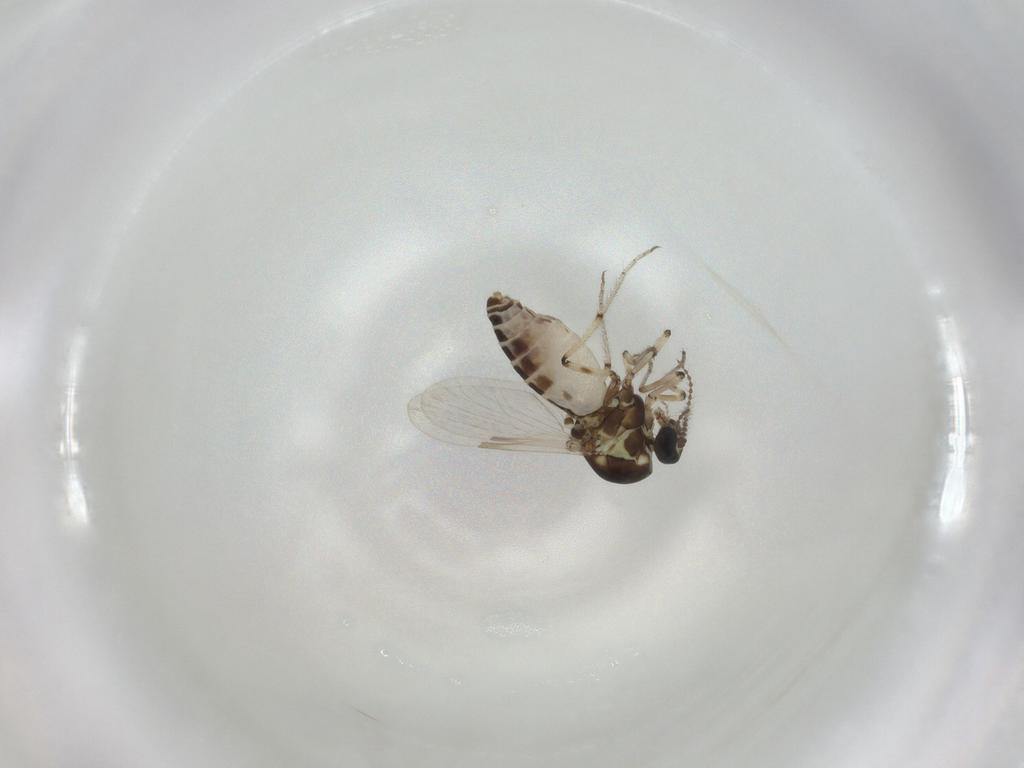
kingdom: Animalia
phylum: Arthropoda
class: Insecta
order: Diptera
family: Ceratopogonidae
